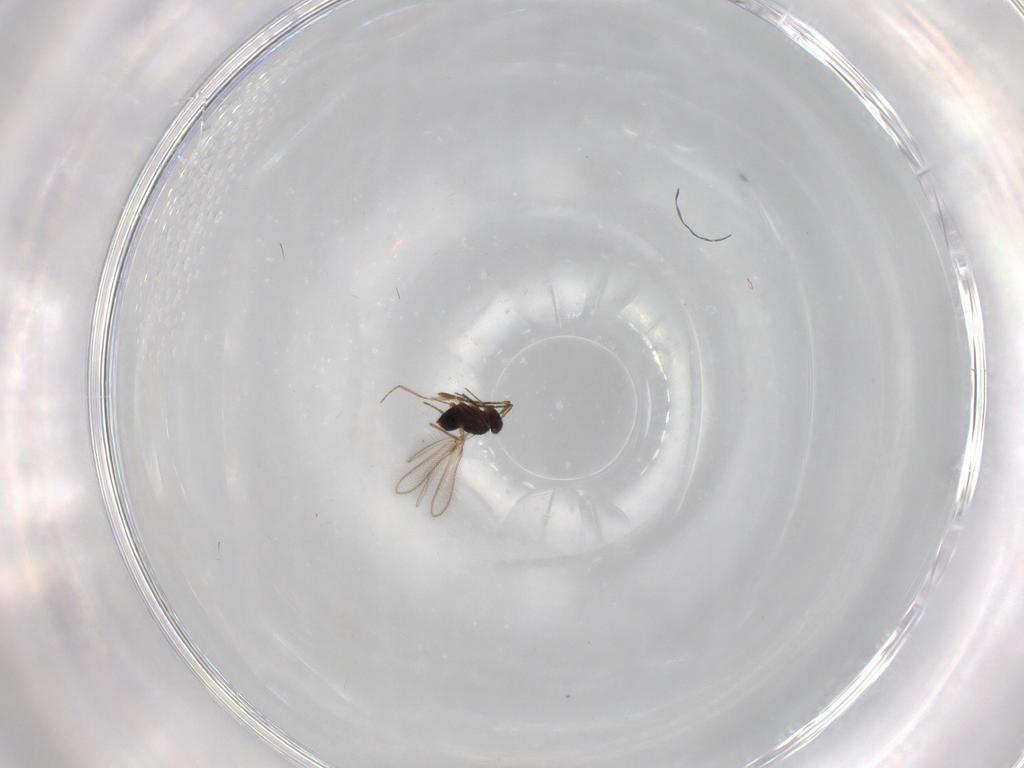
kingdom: Animalia
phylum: Arthropoda
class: Insecta
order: Hymenoptera
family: Mymaridae
